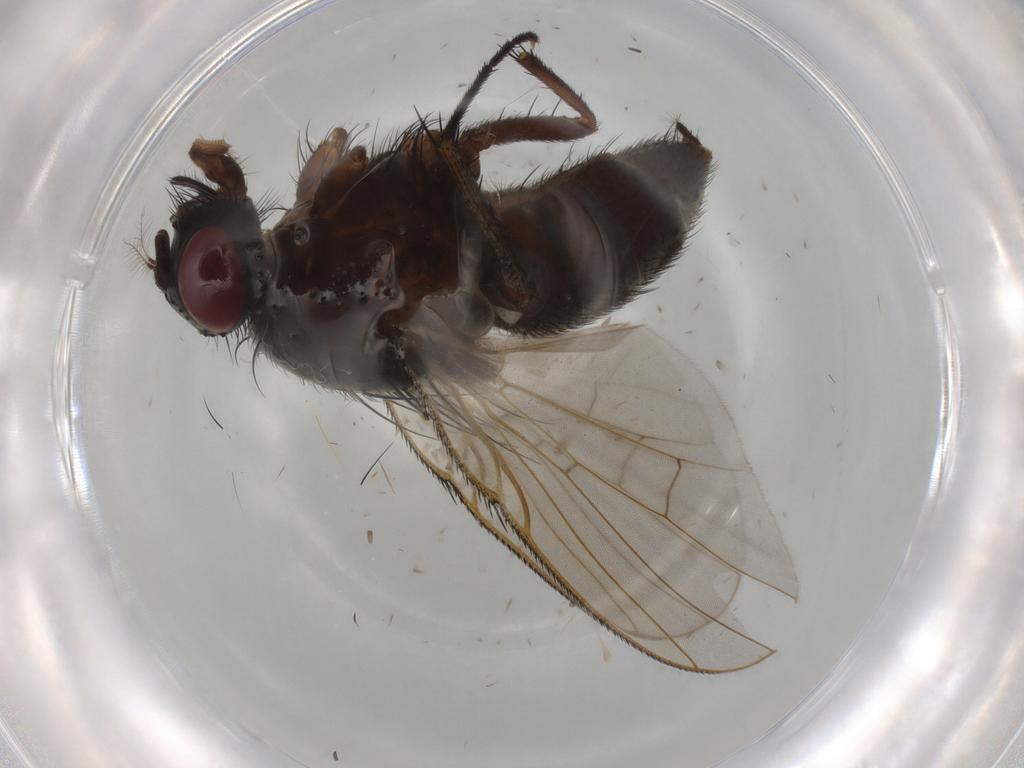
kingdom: Animalia
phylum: Arthropoda
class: Insecta
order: Diptera
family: Muscidae
